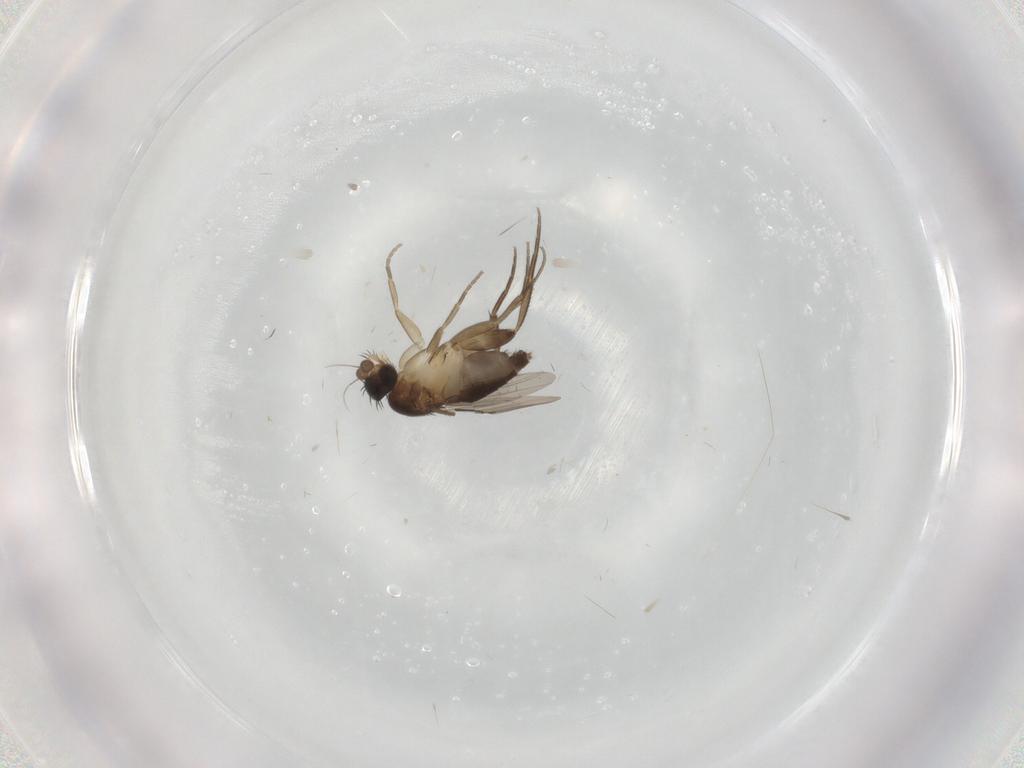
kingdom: Animalia
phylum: Arthropoda
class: Insecta
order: Diptera
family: Phoridae
